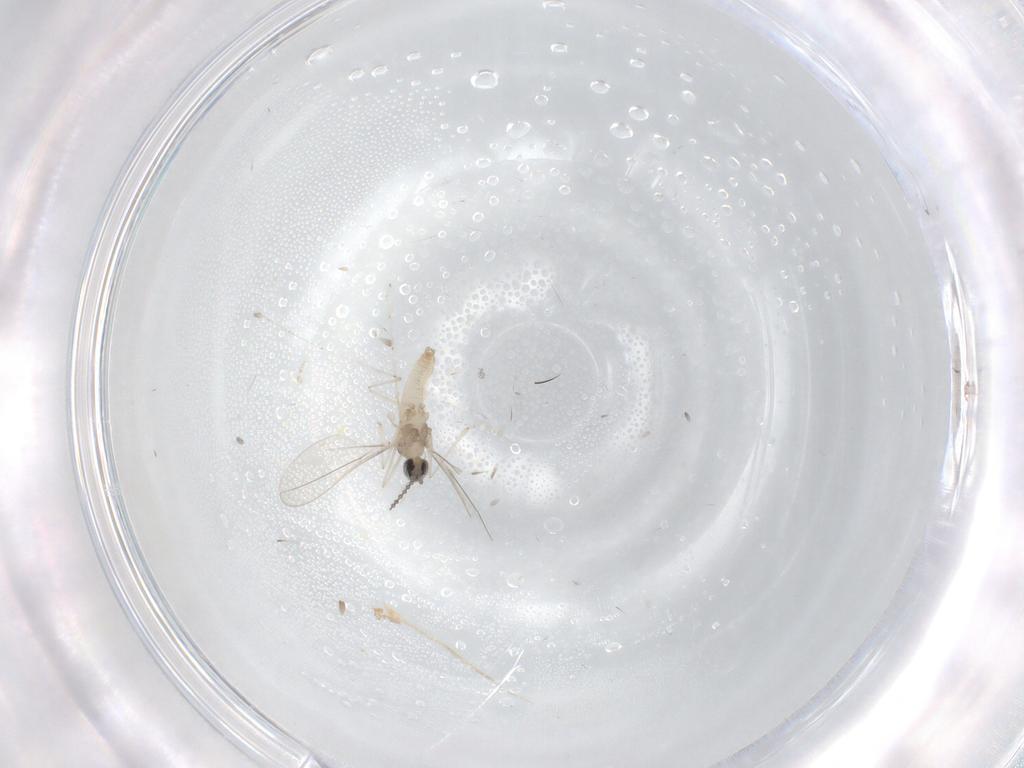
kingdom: Animalia
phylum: Arthropoda
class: Insecta
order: Diptera
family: Cecidomyiidae
